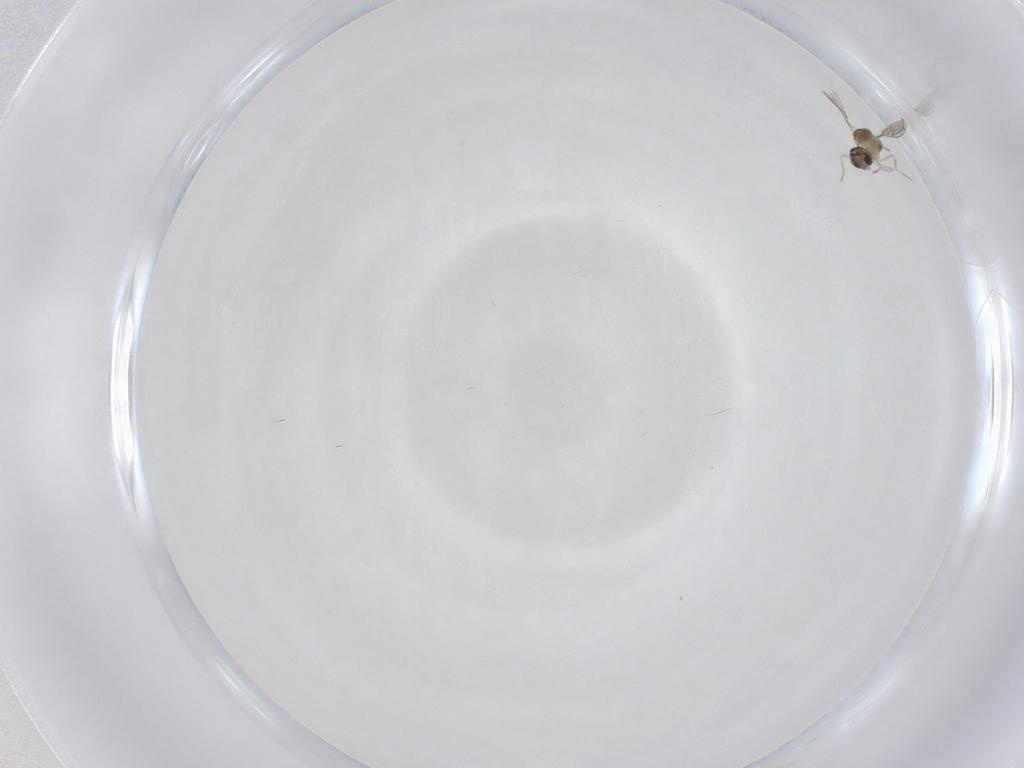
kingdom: Animalia
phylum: Arthropoda
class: Insecta
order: Diptera
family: Cecidomyiidae
